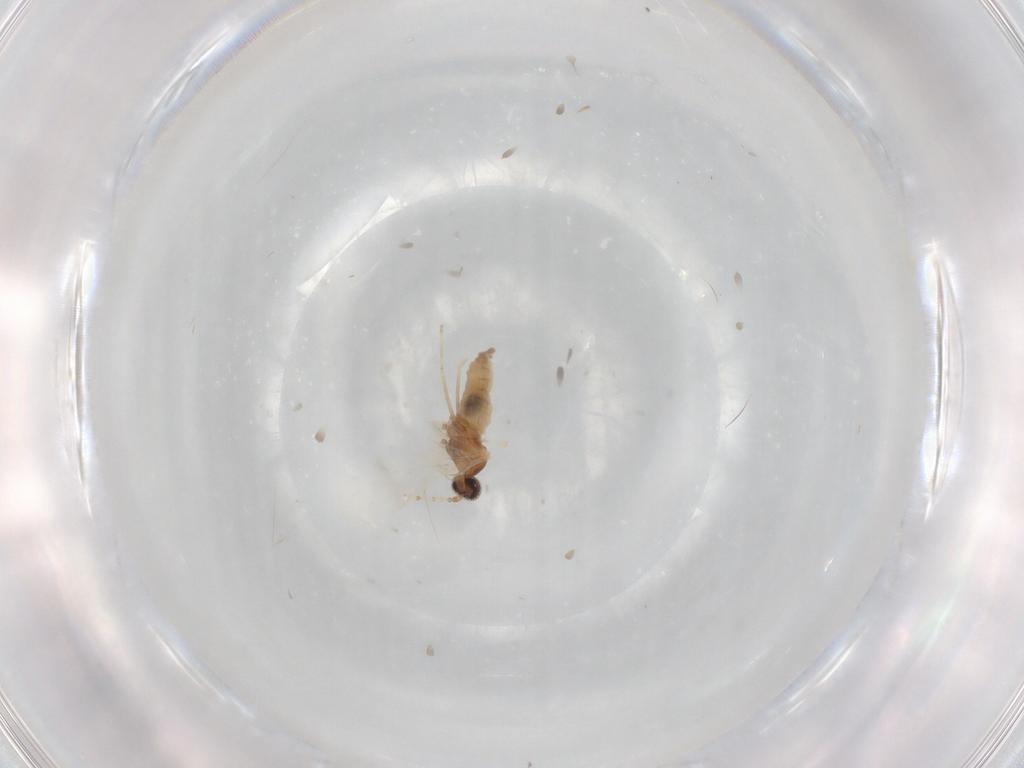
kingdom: Animalia
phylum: Arthropoda
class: Insecta
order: Diptera
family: Cecidomyiidae
